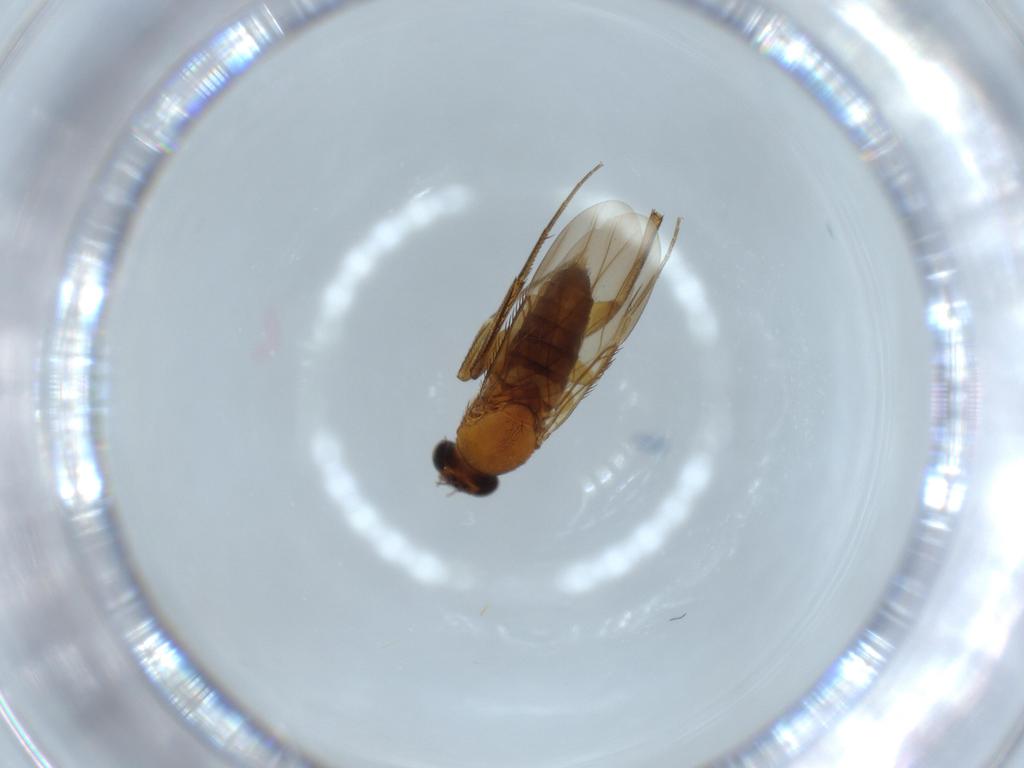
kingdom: Animalia
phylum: Arthropoda
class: Insecta
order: Diptera
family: Phoridae
